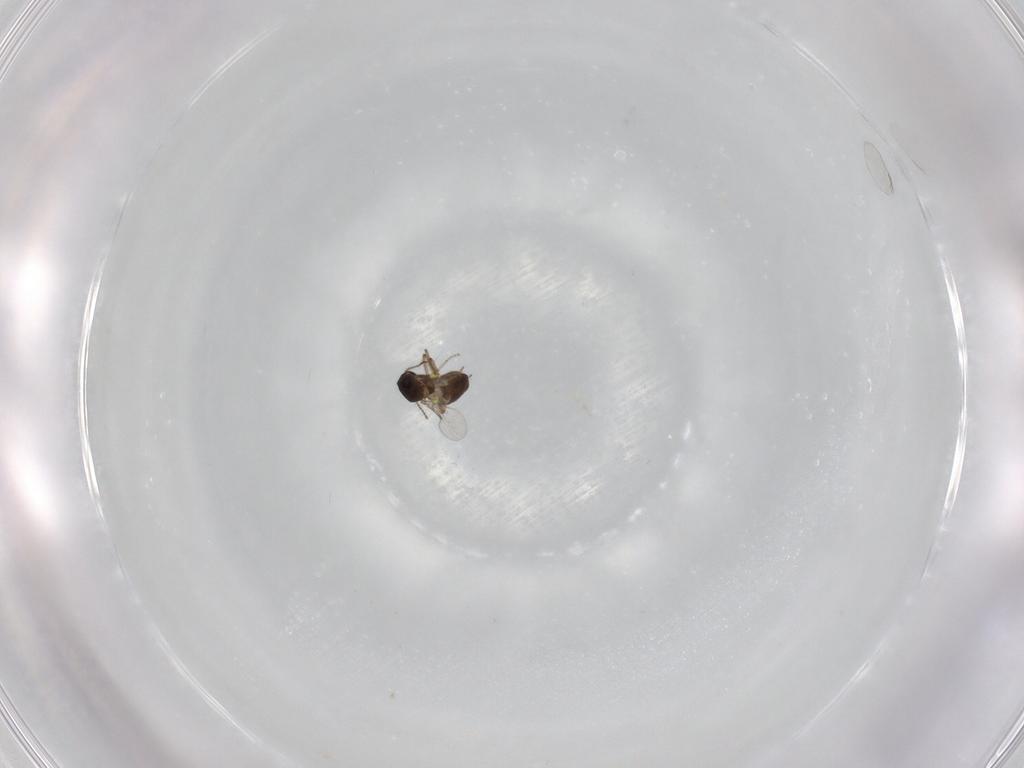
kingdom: Animalia
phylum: Arthropoda
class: Insecta
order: Diptera
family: Ceratopogonidae
